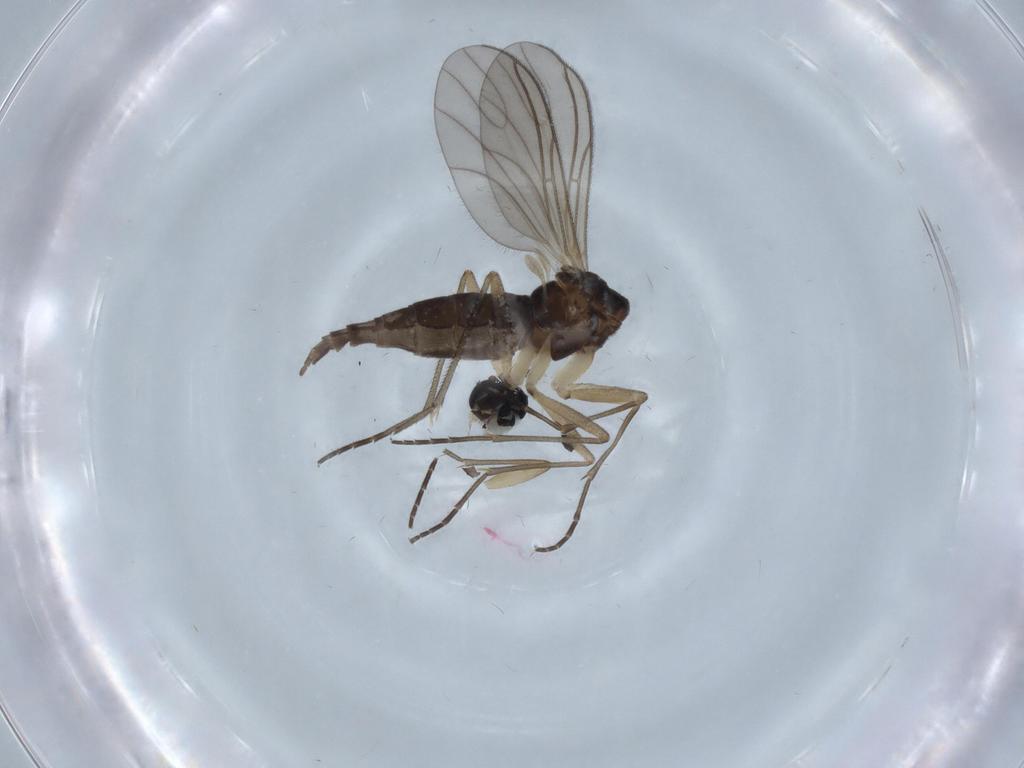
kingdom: Animalia
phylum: Arthropoda
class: Insecta
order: Diptera
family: Sciaridae
